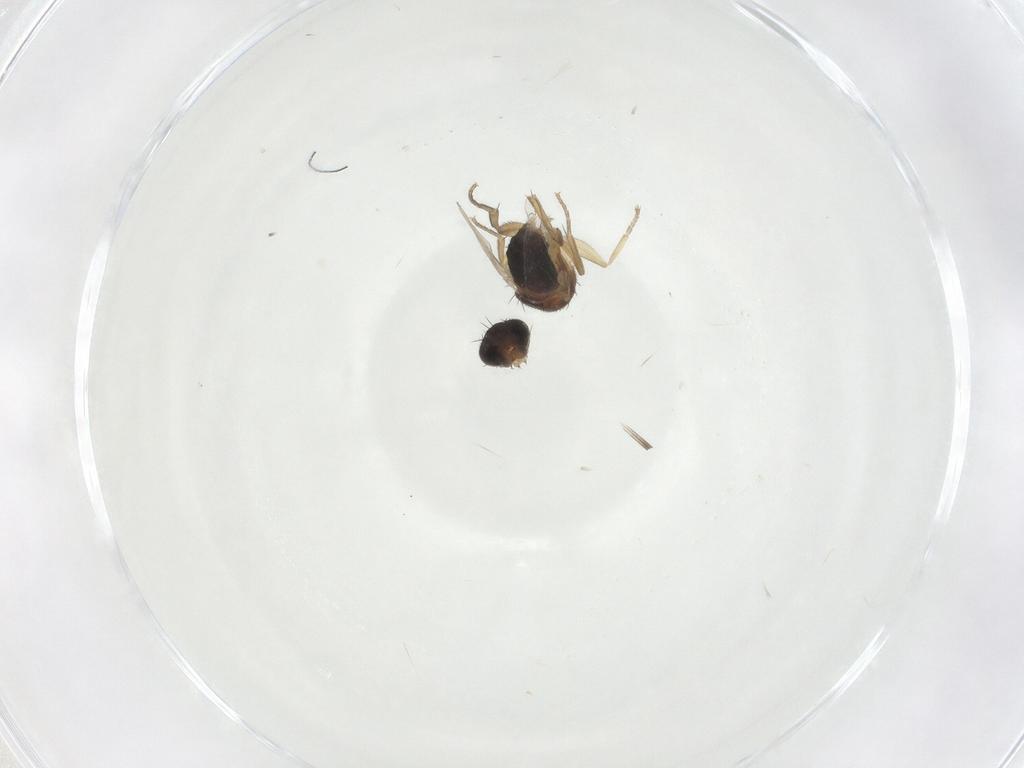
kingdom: Animalia
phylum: Arthropoda
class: Insecta
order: Diptera
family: Phoridae
